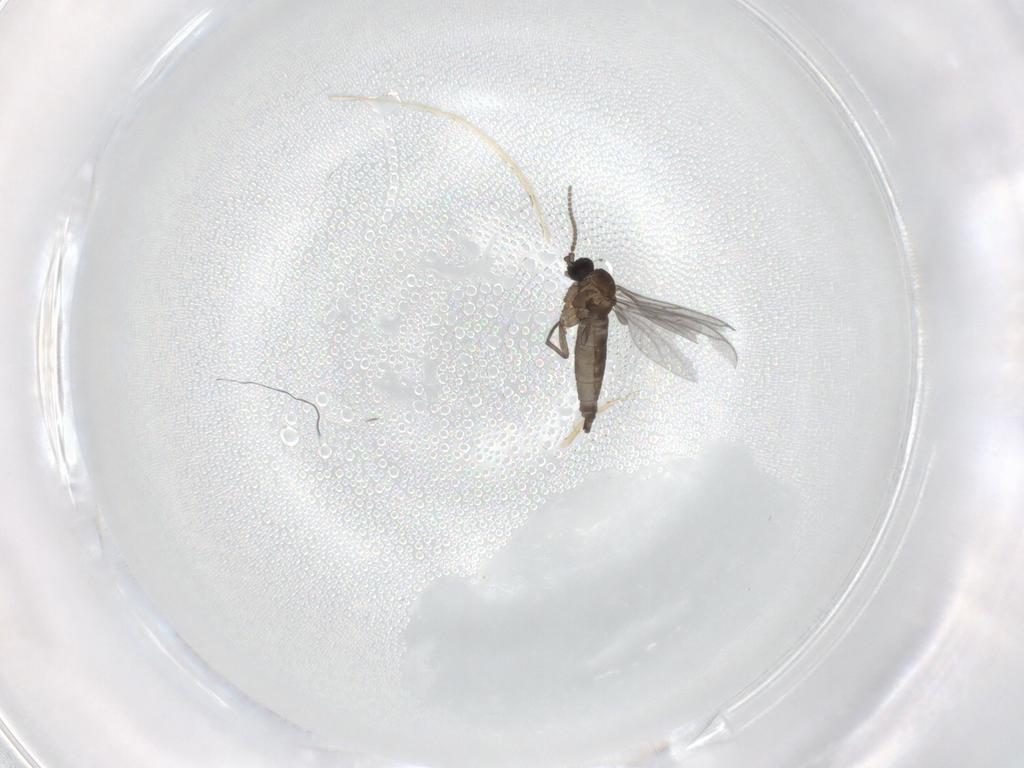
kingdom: Animalia
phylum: Arthropoda
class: Insecta
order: Diptera
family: Sciaridae
